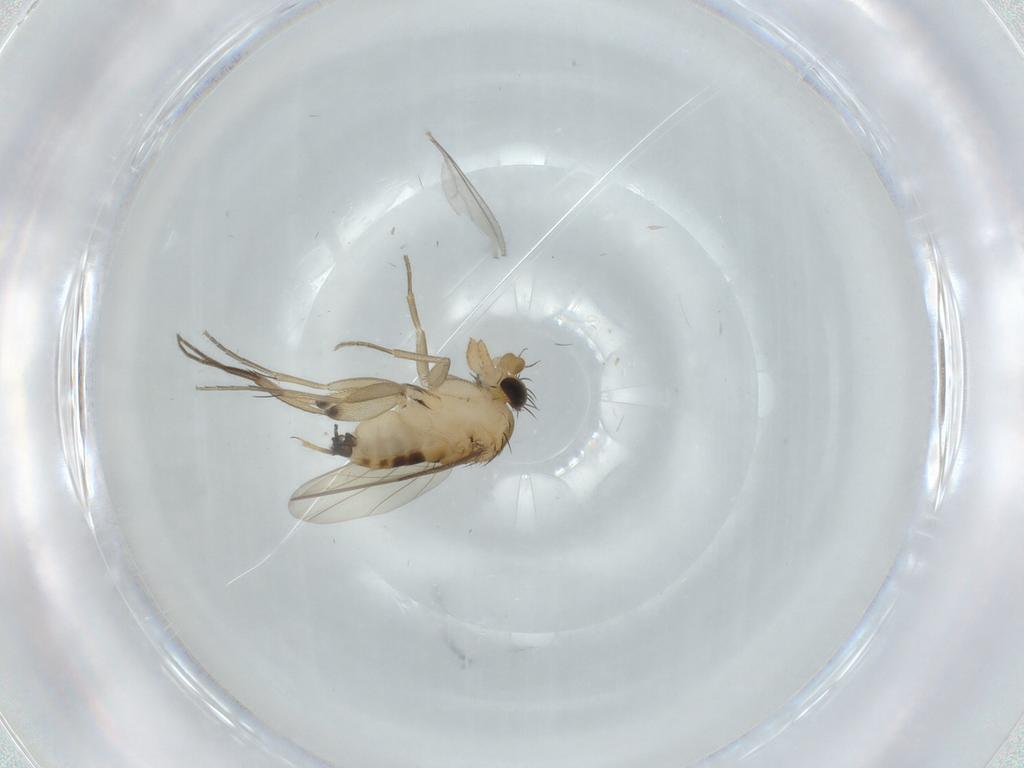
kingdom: Animalia
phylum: Arthropoda
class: Insecta
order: Diptera
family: Phoridae
